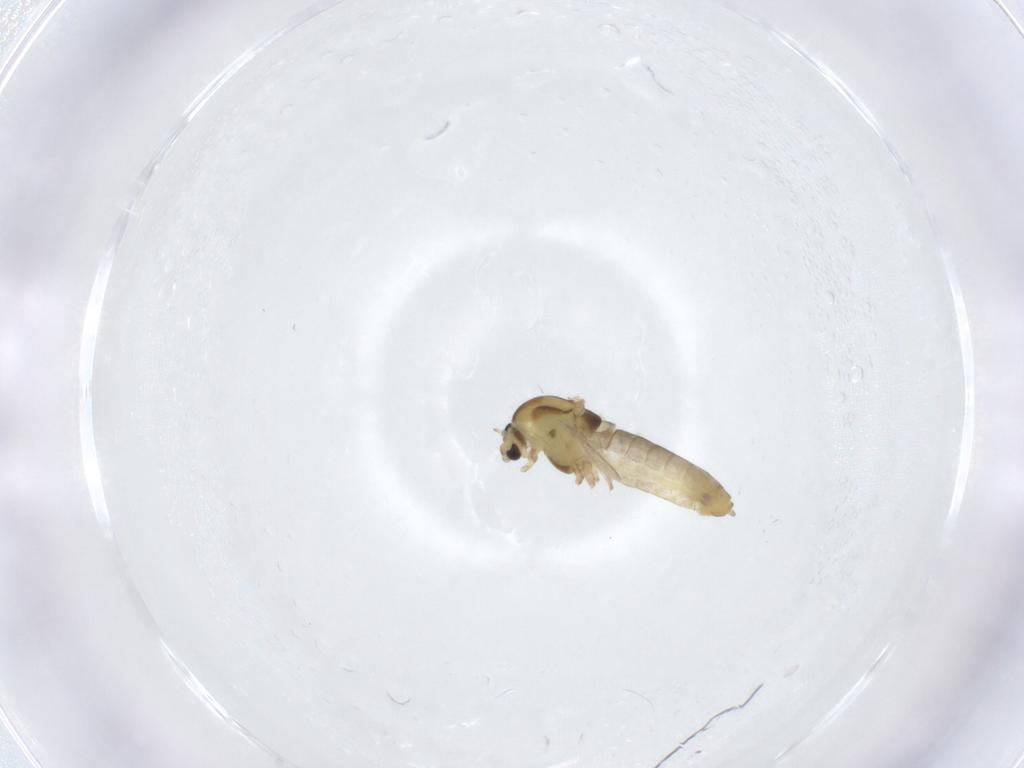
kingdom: Animalia
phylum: Arthropoda
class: Insecta
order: Diptera
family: Chironomidae
